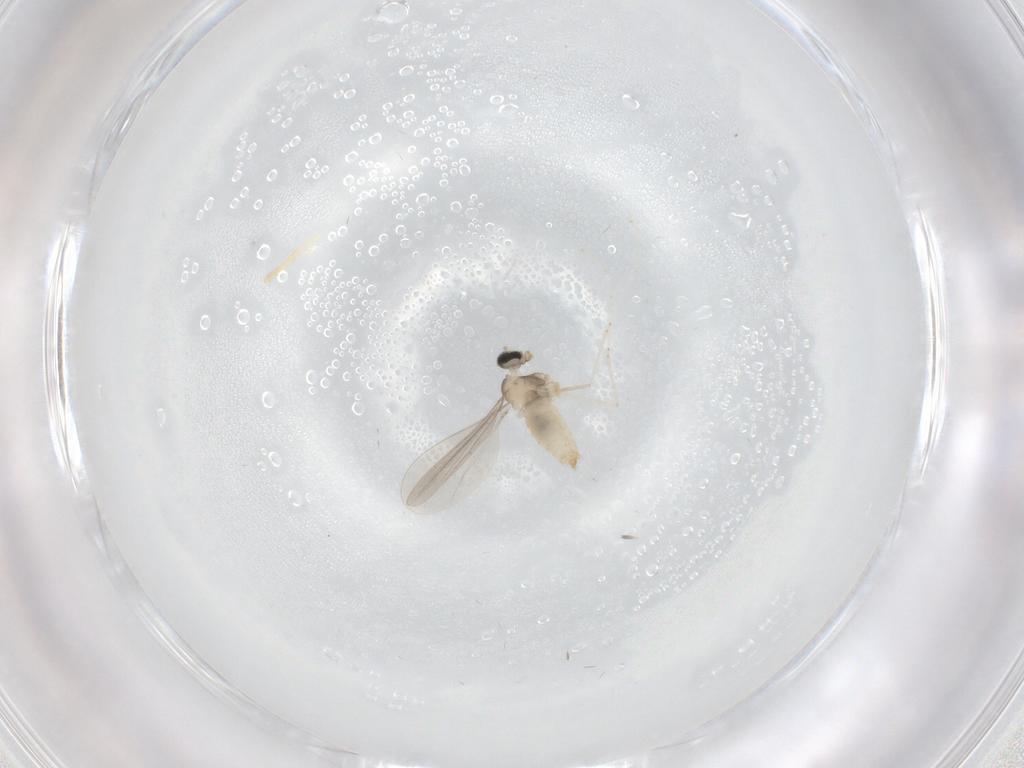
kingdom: Animalia
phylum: Arthropoda
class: Insecta
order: Diptera
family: Cecidomyiidae
